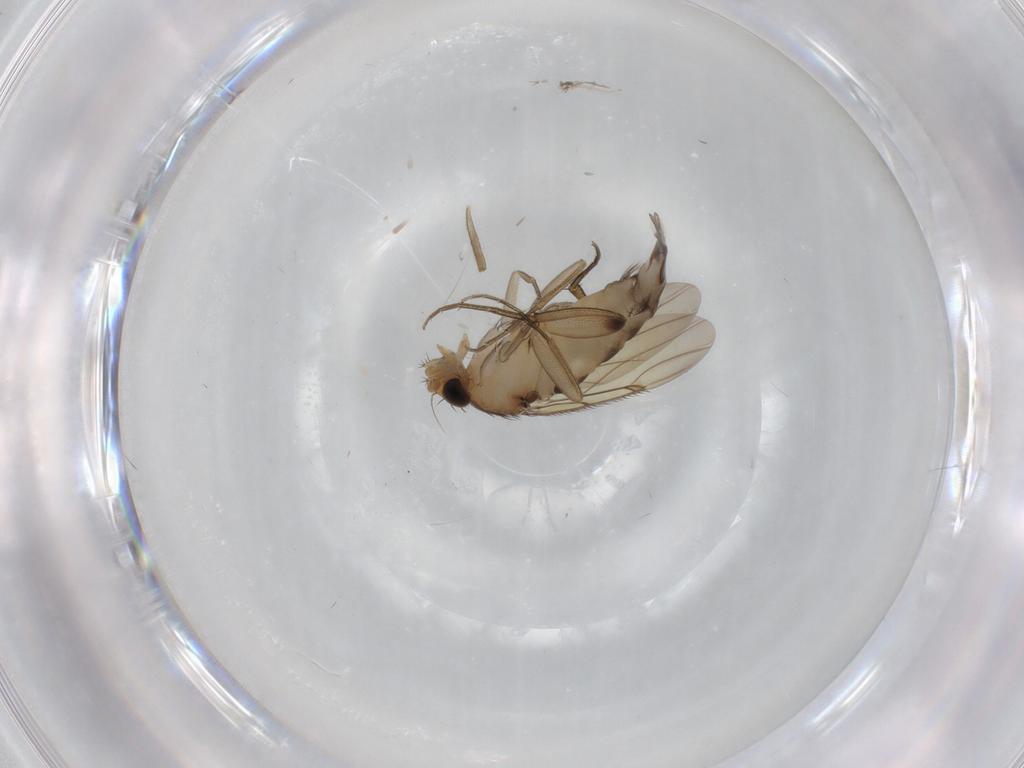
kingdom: Animalia
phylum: Arthropoda
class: Insecta
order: Diptera
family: Phoridae
